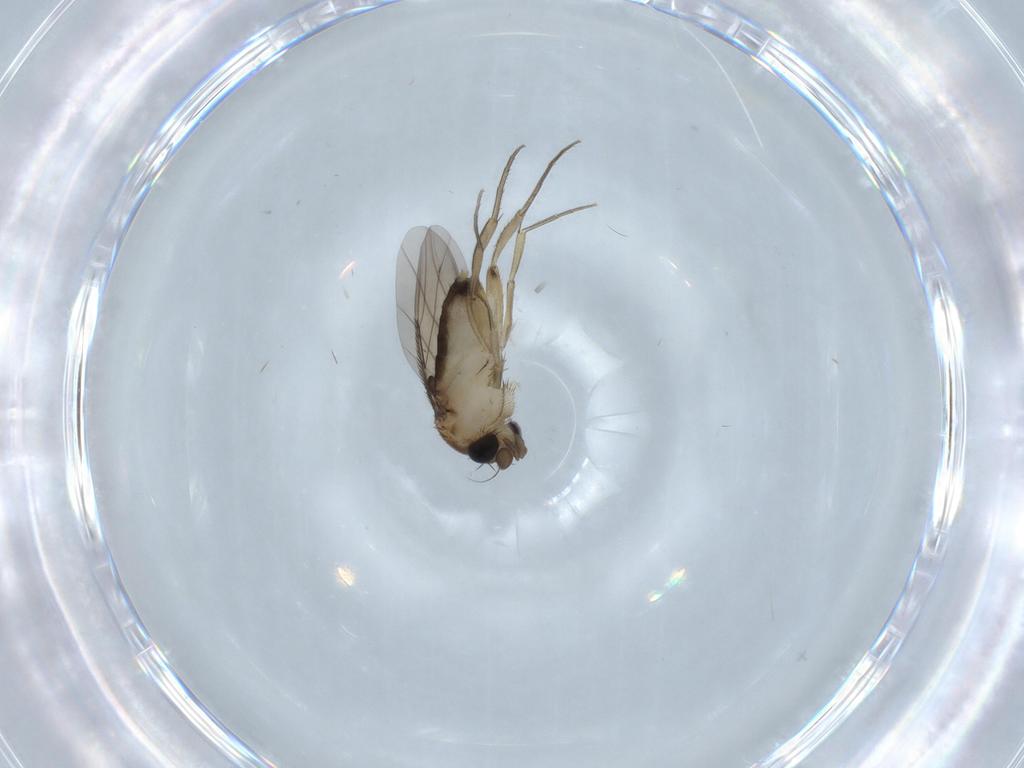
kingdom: Animalia
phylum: Arthropoda
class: Insecta
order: Diptera
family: Phoridae
